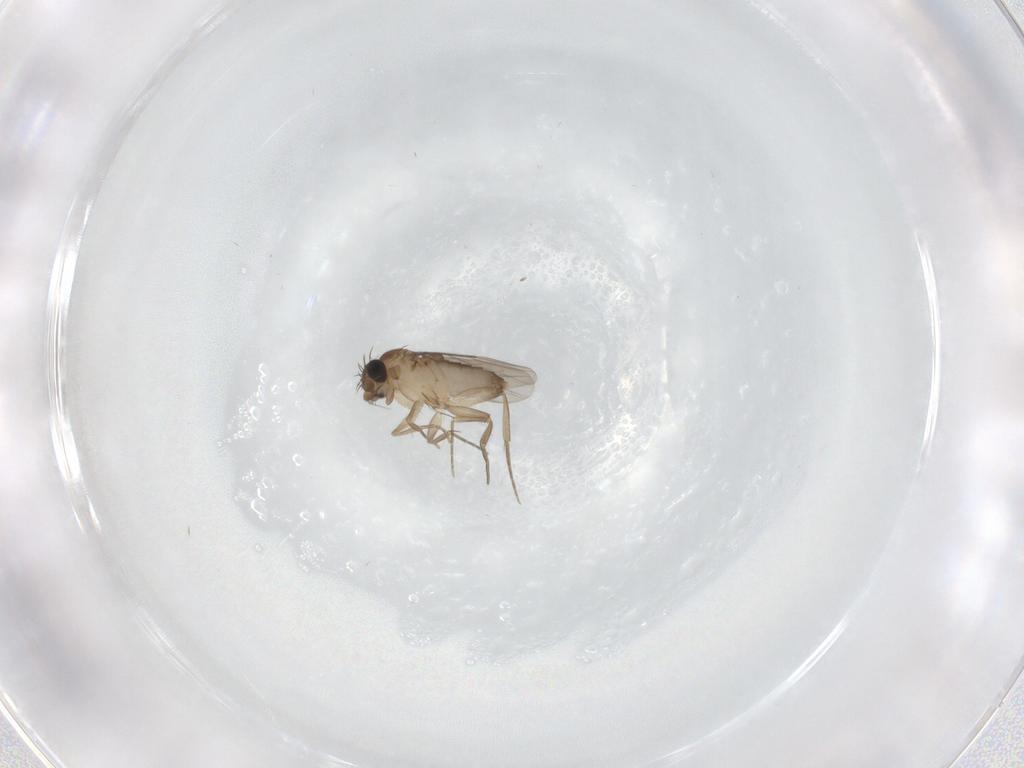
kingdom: Animalia
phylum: Arthropoda
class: Insecta
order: Diptera
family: Phoridae
